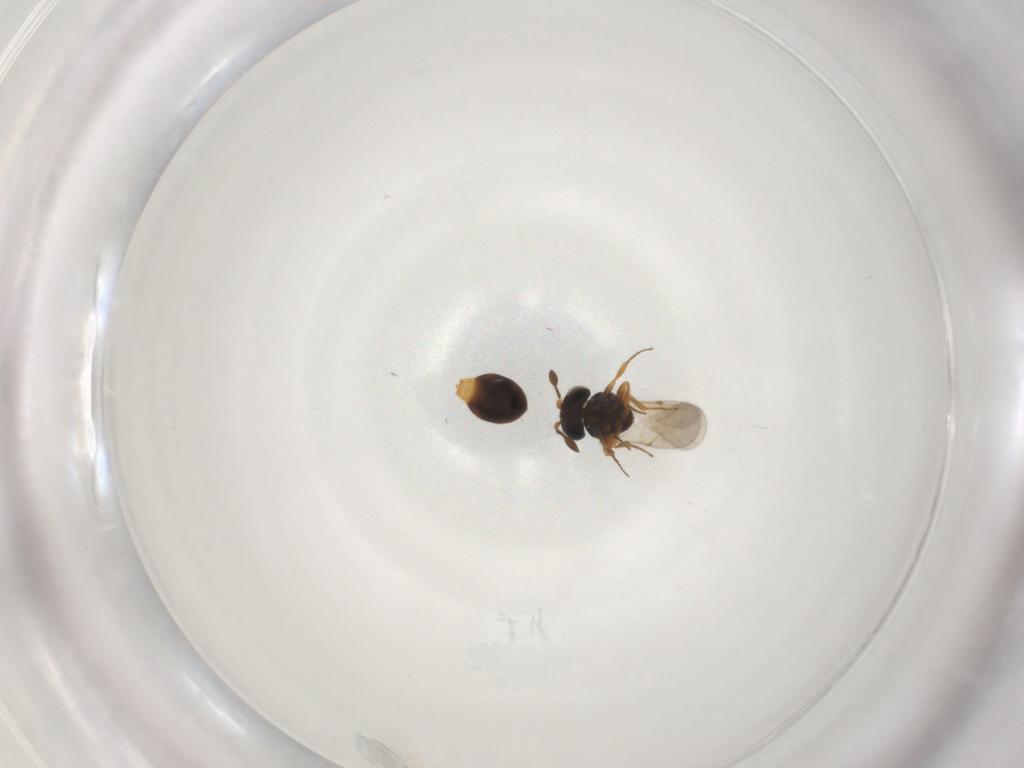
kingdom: Animalia
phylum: Arthropoda
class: Insecta
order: Hymenoptera
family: Scelionidae
